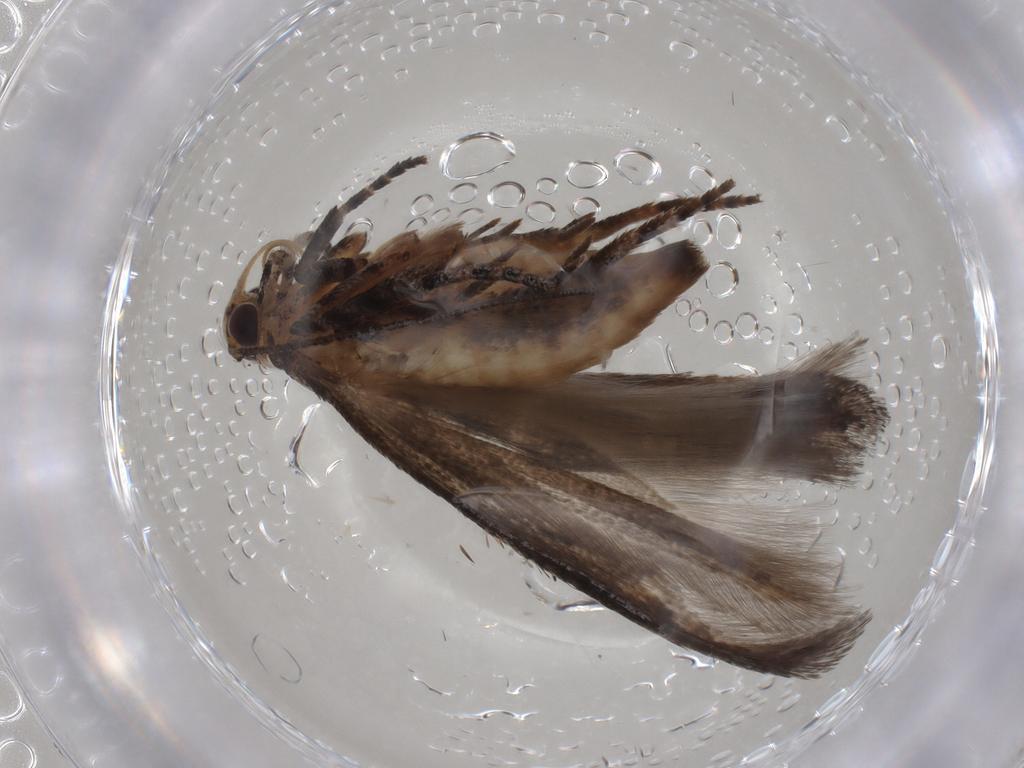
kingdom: Animalia
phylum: Arthropoda
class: Insecta
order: Lepidoptera
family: Gelechiidae
